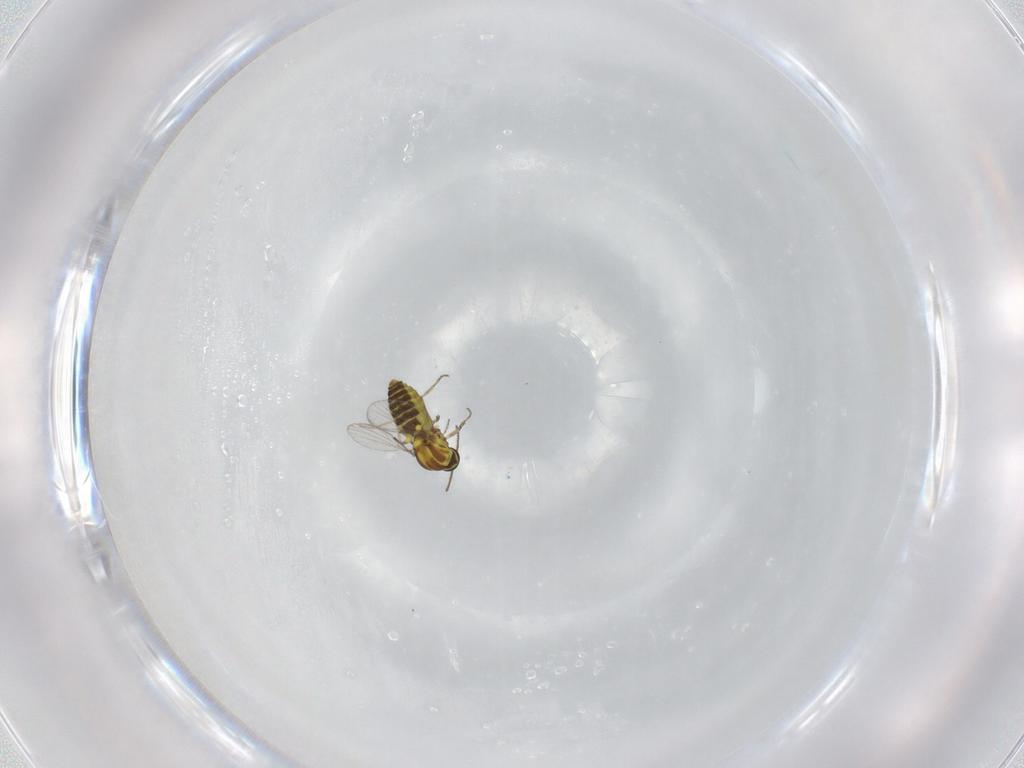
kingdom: Animalia
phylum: Arthropoda
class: Insecta
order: Diptera
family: Ceratopogonidae
